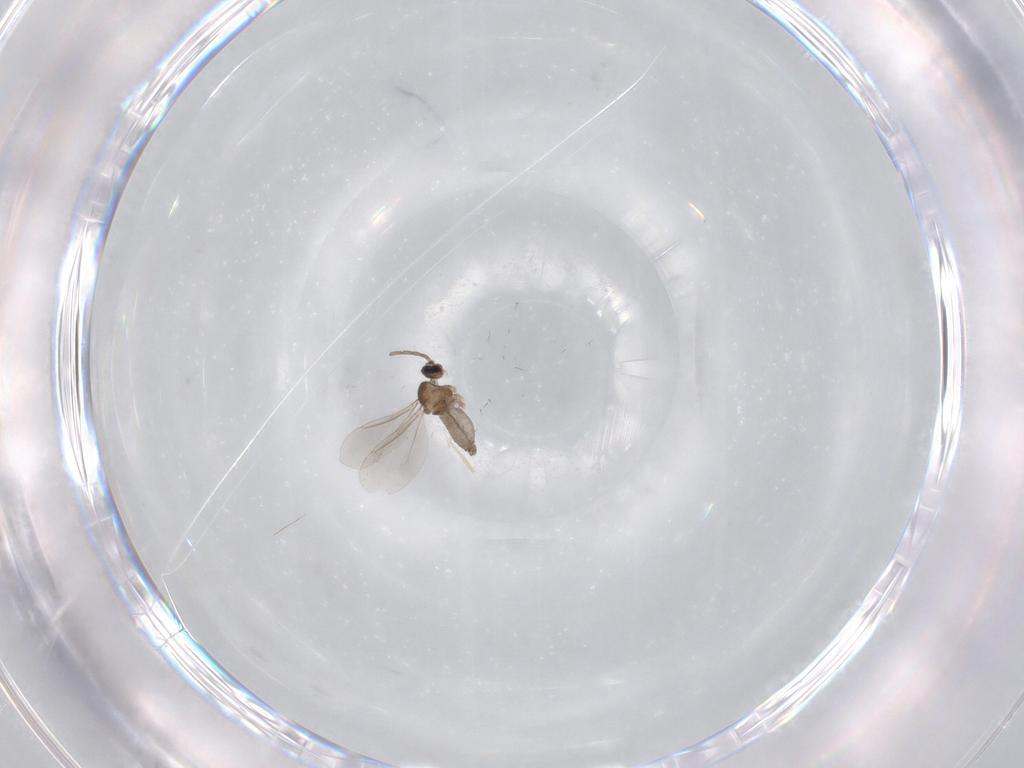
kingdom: Animalia
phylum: Arthropoda
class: Insecta
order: Diptera
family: Cecidomyiidae
